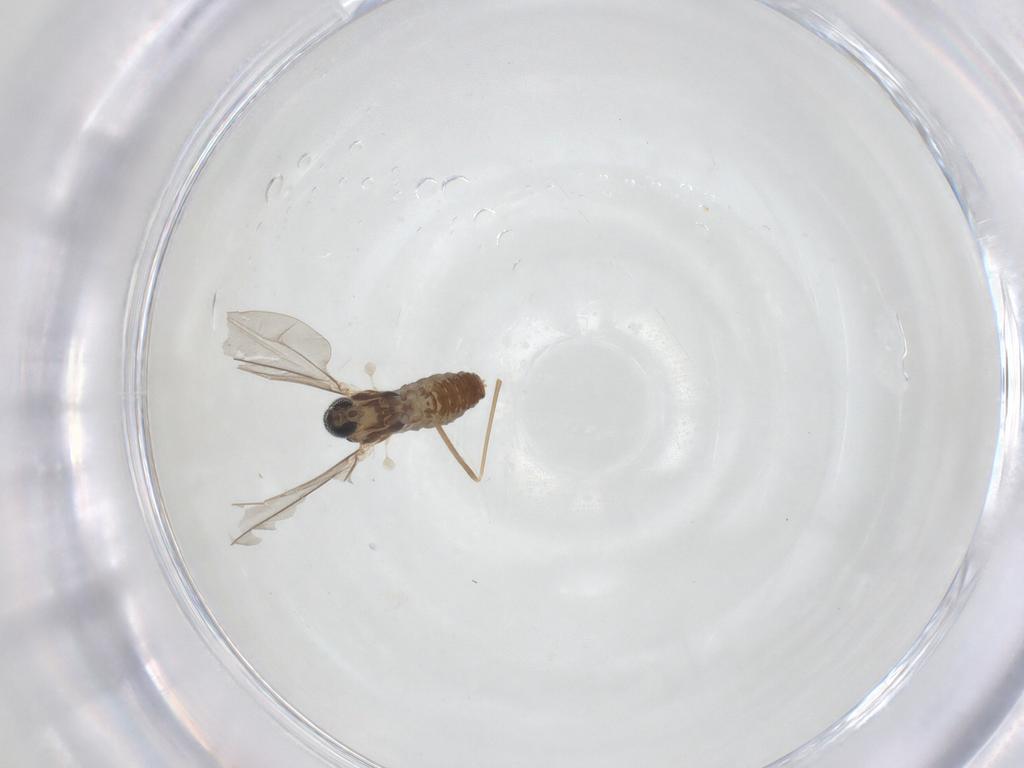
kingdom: Animalia
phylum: Arthropoda
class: Insecta
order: Diptera
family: Cecidomyiidae
